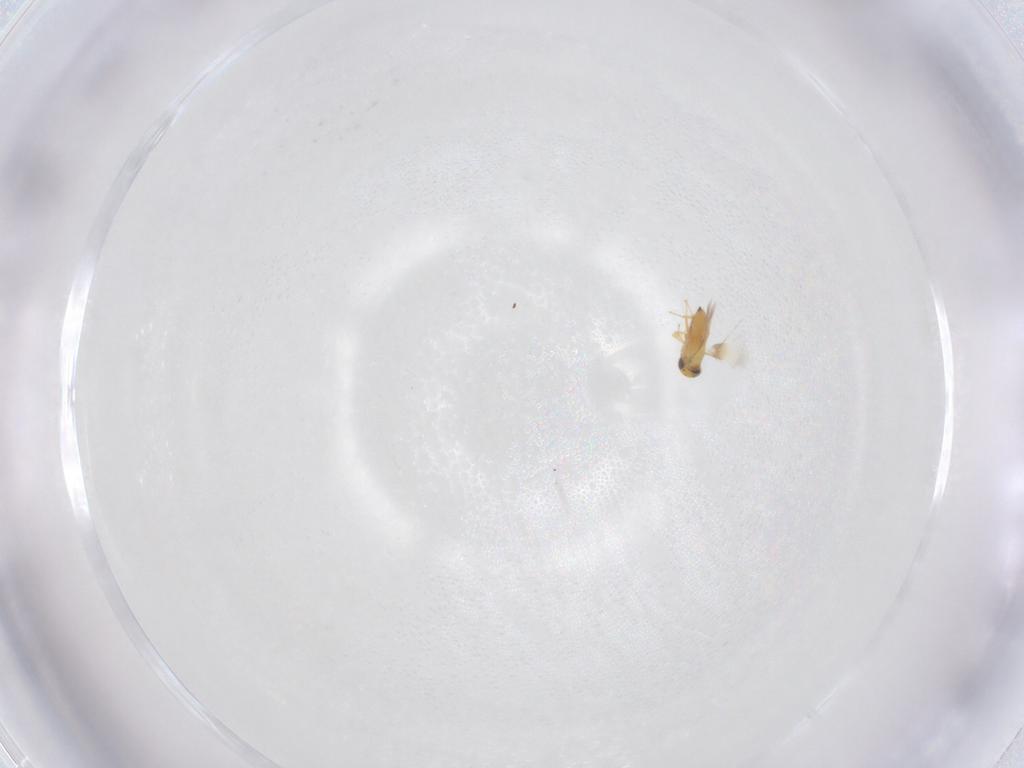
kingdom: Animalia
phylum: Arthropoda
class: Insecta
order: Hymenoptera
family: Signiphoridae
